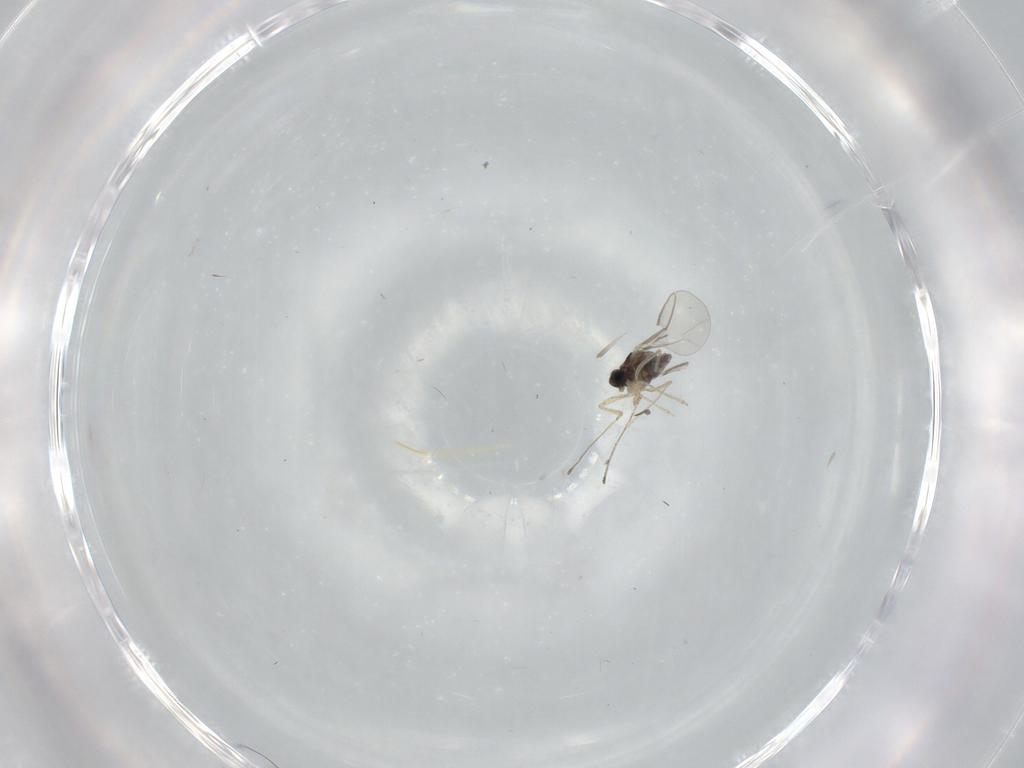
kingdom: Animalia
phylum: Arthropoda
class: Insecta
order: Diptera
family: Cecidomyiidae
